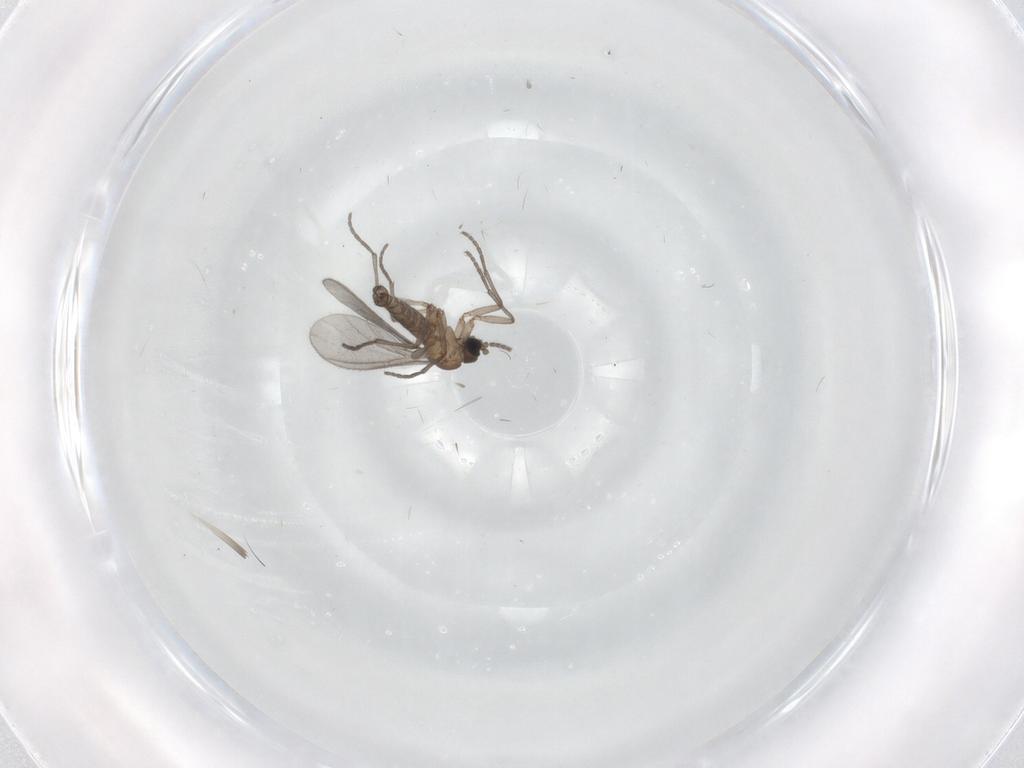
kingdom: Animalia
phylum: Arthropoda
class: Insecta
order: Diptera
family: Sciaridae
